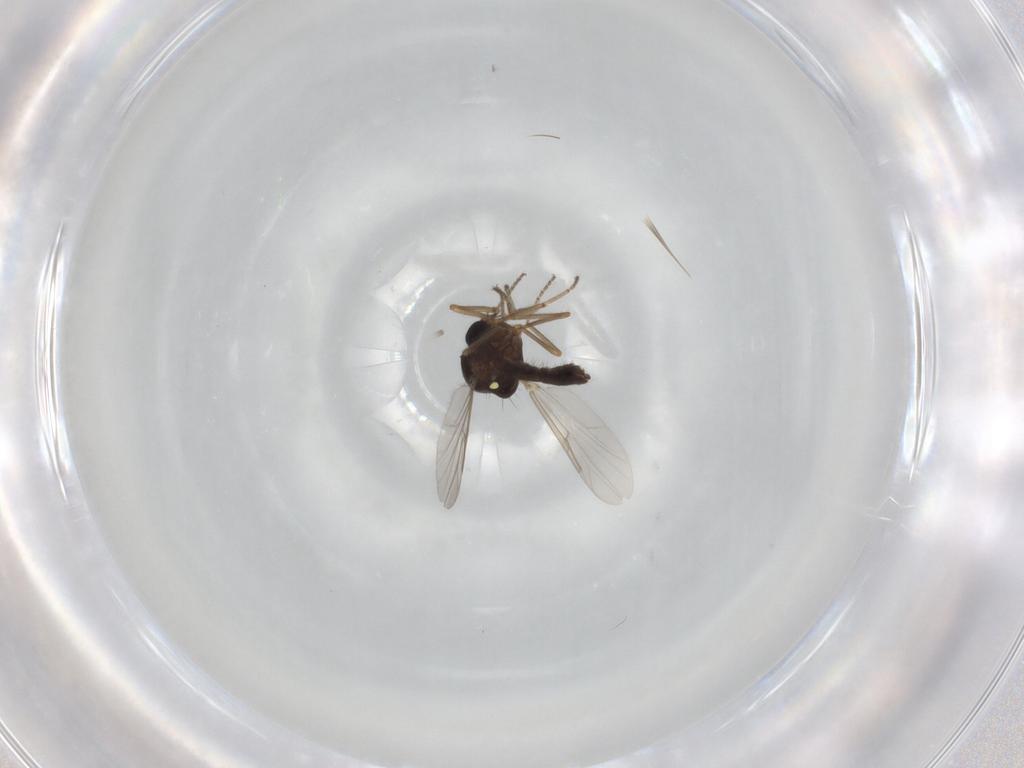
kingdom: Animalia
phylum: Arthropoda
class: Insecta
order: Diptera
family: Ceratopogonidae
